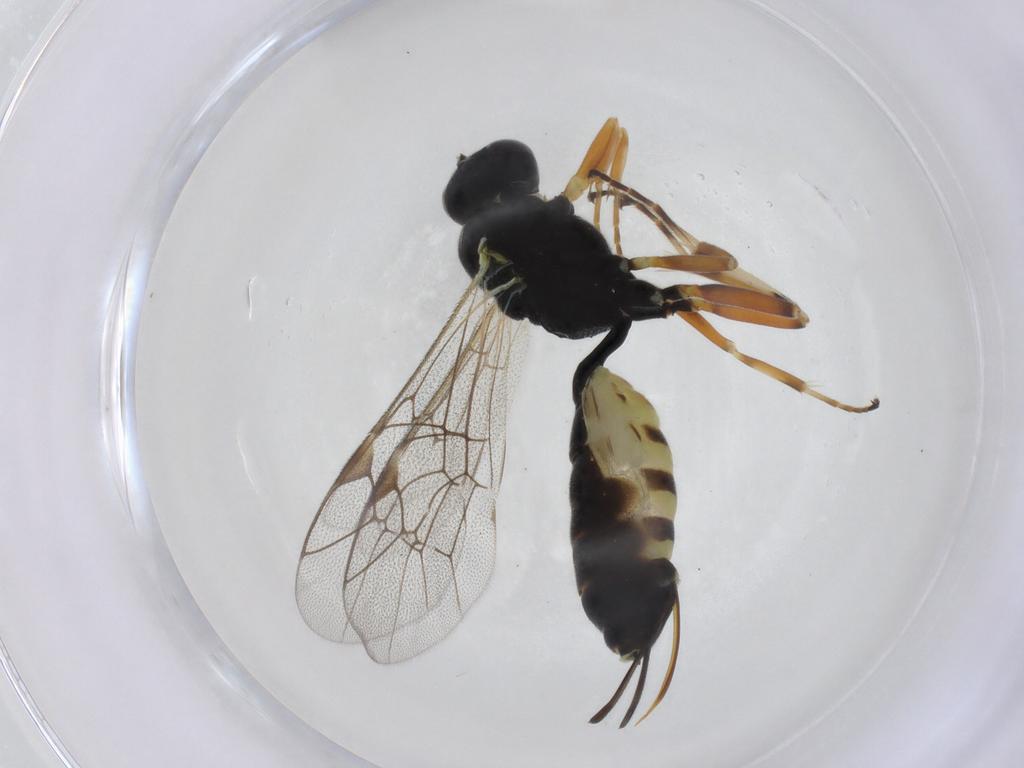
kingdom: Animalia
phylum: Arthropoda
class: Insecta
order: Hymenoptera
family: Ichneumonidae
